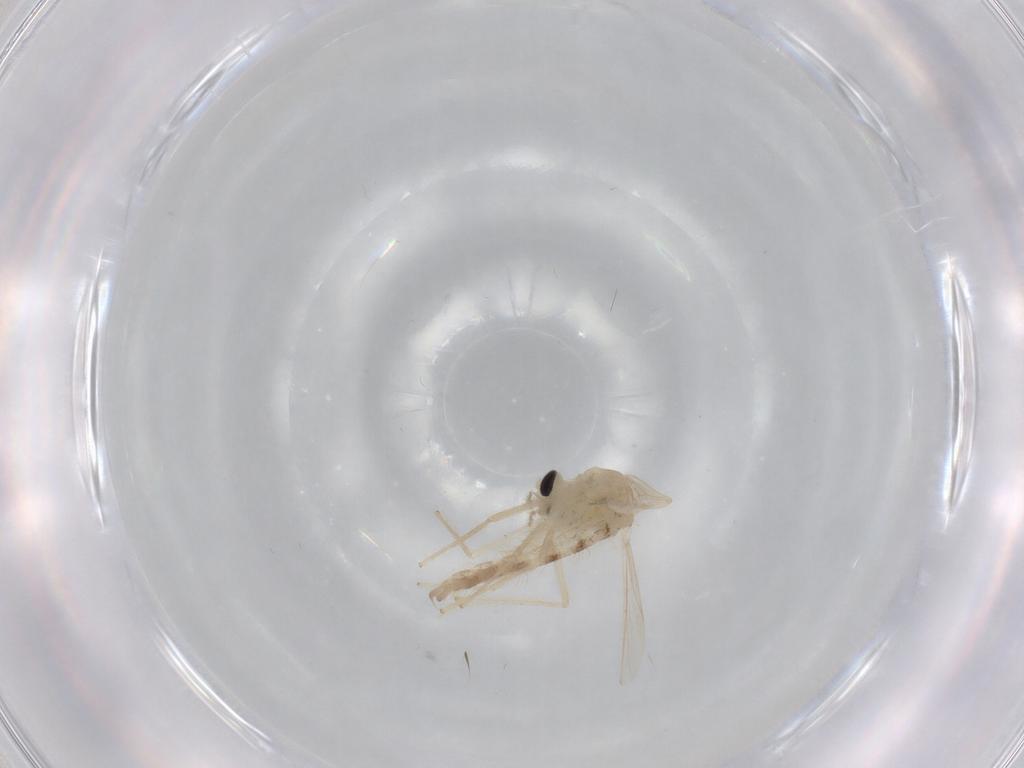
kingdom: Animalia
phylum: Arthropoda
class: Insecta
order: Diptera
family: Chironomidae
